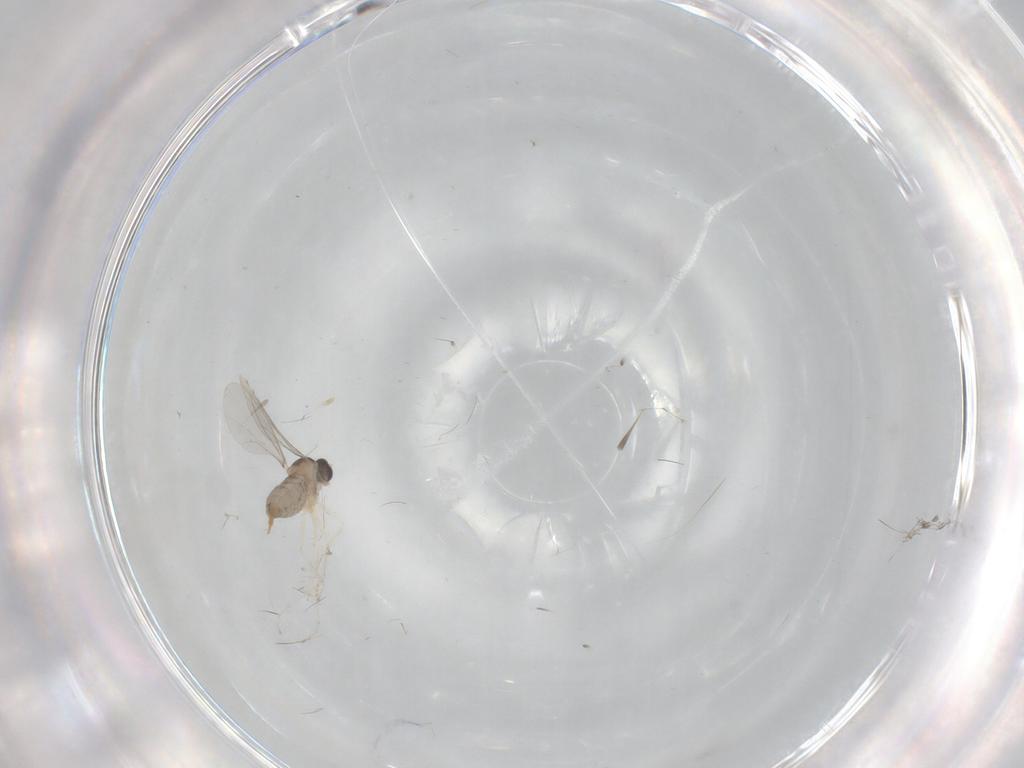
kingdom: Animalia
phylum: Arthropoda
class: Insecta
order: Diptera
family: Cecidomyiidae
